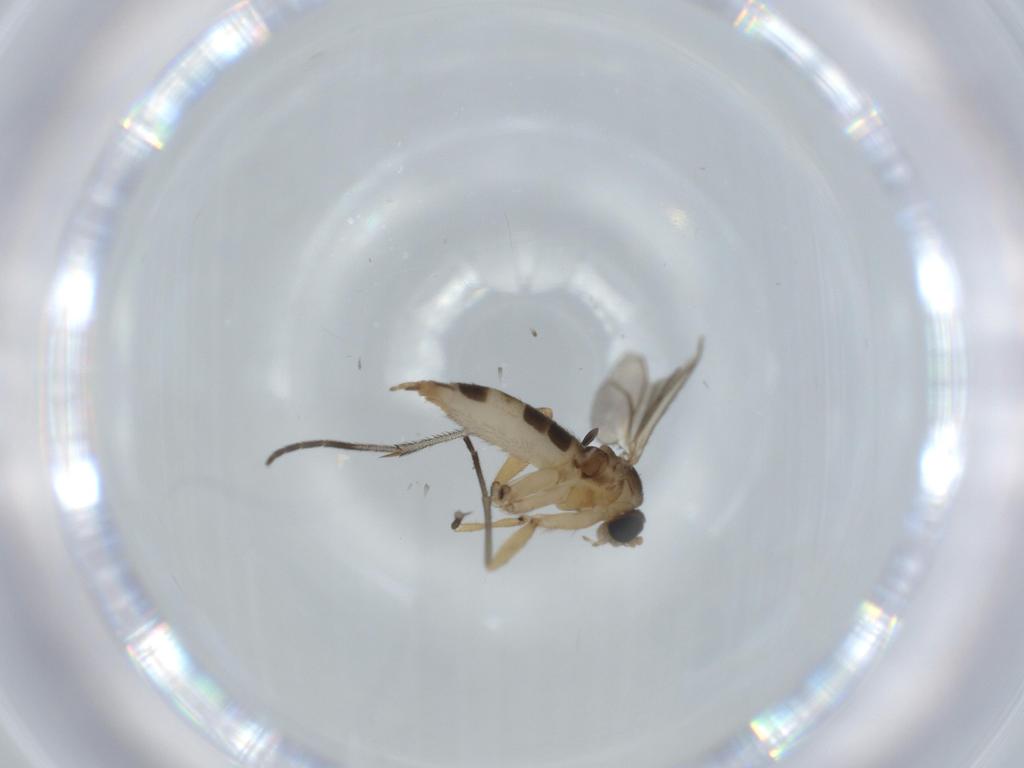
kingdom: Animalia
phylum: Arthropoda
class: Insecta
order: Diptera
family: Sciaridae
